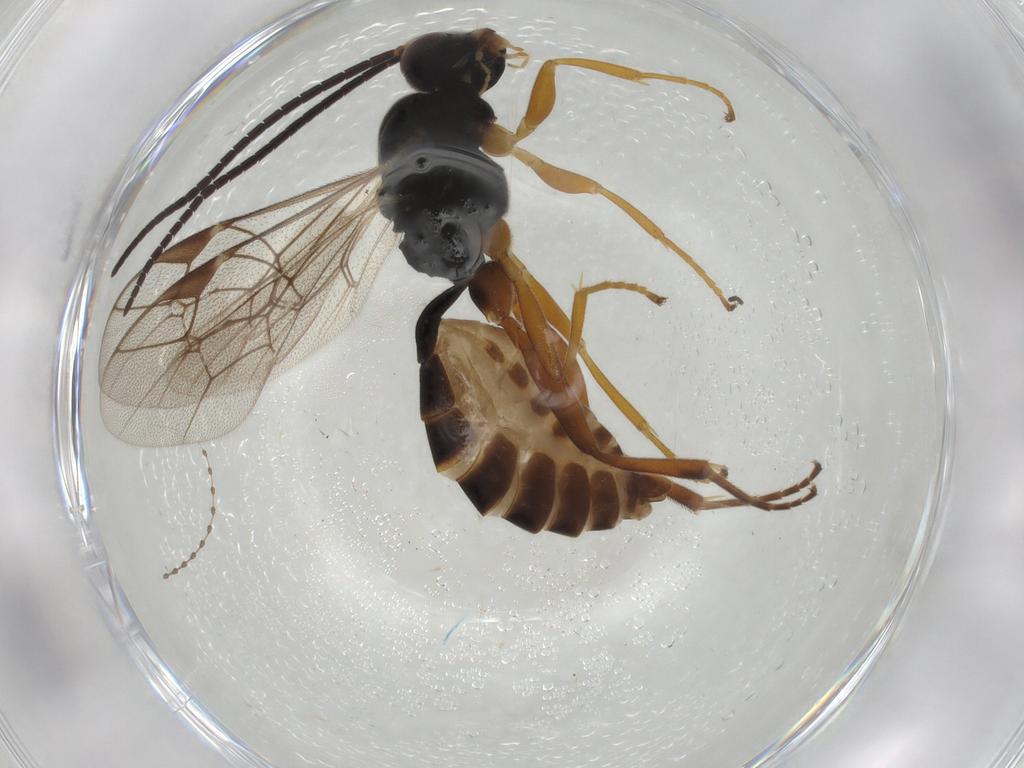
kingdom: Animalia
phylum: Arthropoda
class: Insecta
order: Hymenoptera
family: Ichneumonidae
